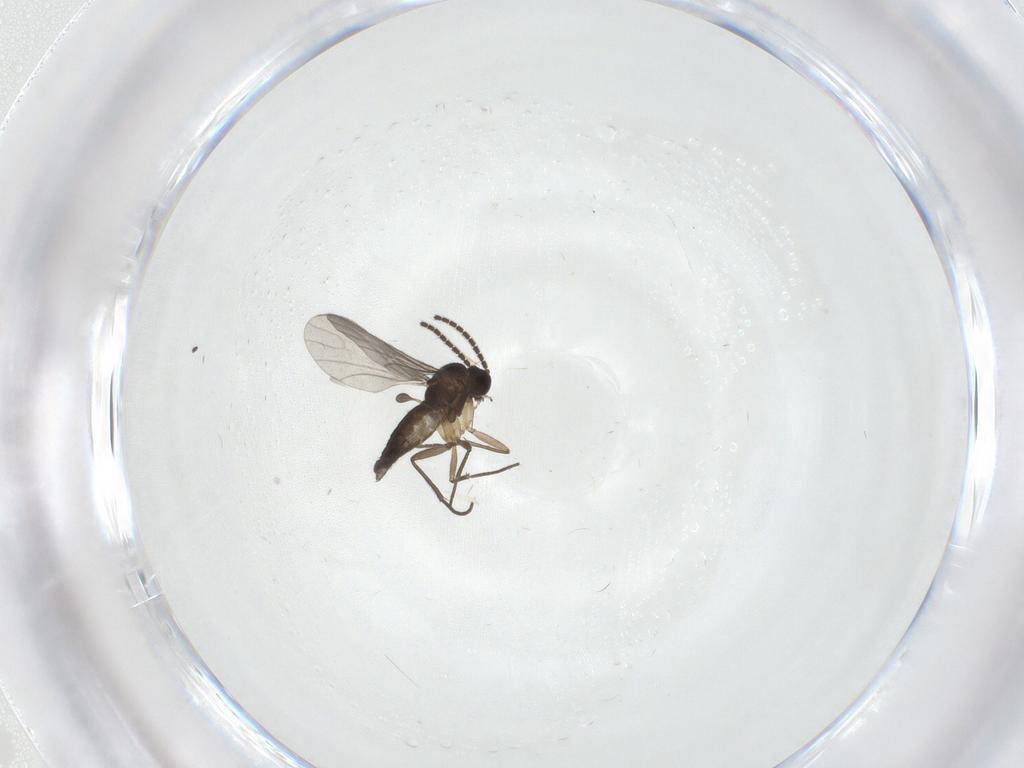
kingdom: Animalia
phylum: Arthropoda
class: Insecta
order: Diptera
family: Sciaridae
